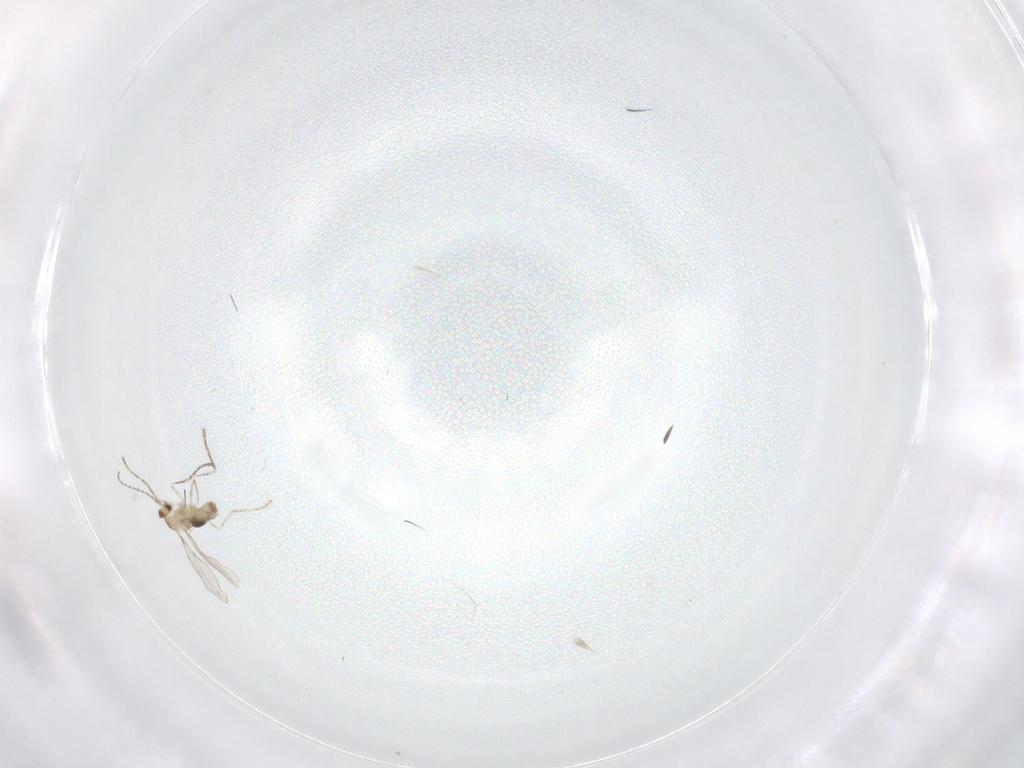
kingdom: Animalia
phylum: Arthropoda
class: Insecta
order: Diptera
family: Cecidomyiidae
